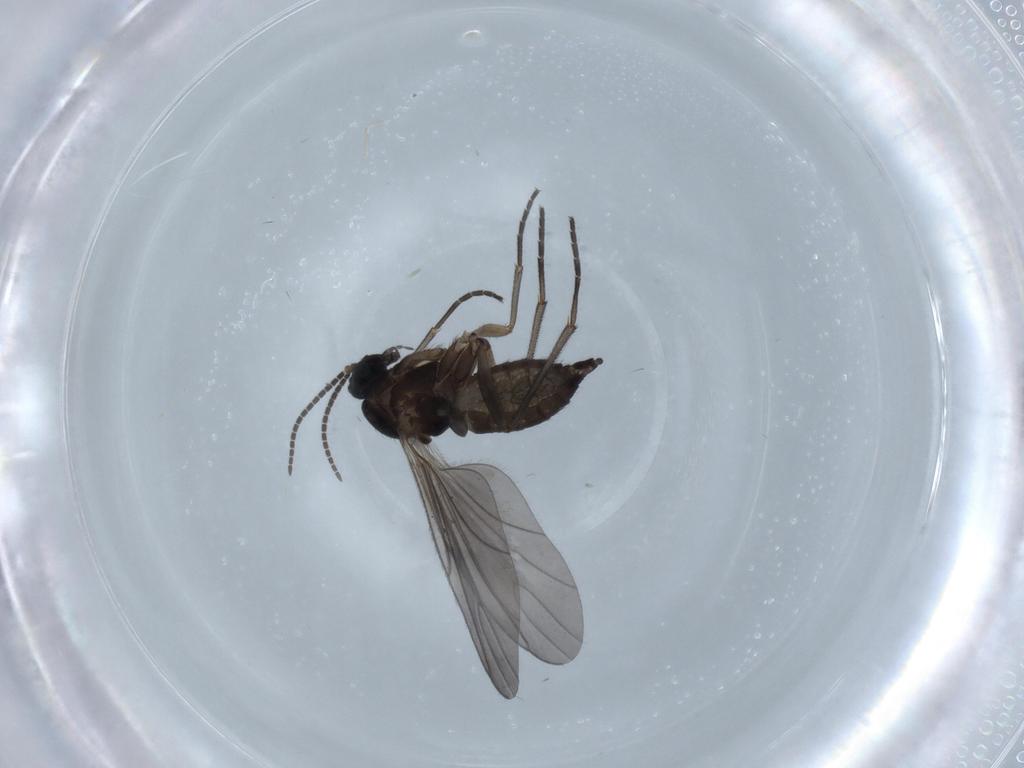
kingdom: Animalia
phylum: Arthropoda
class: Insecta
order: Diptera
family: Sciaridae
